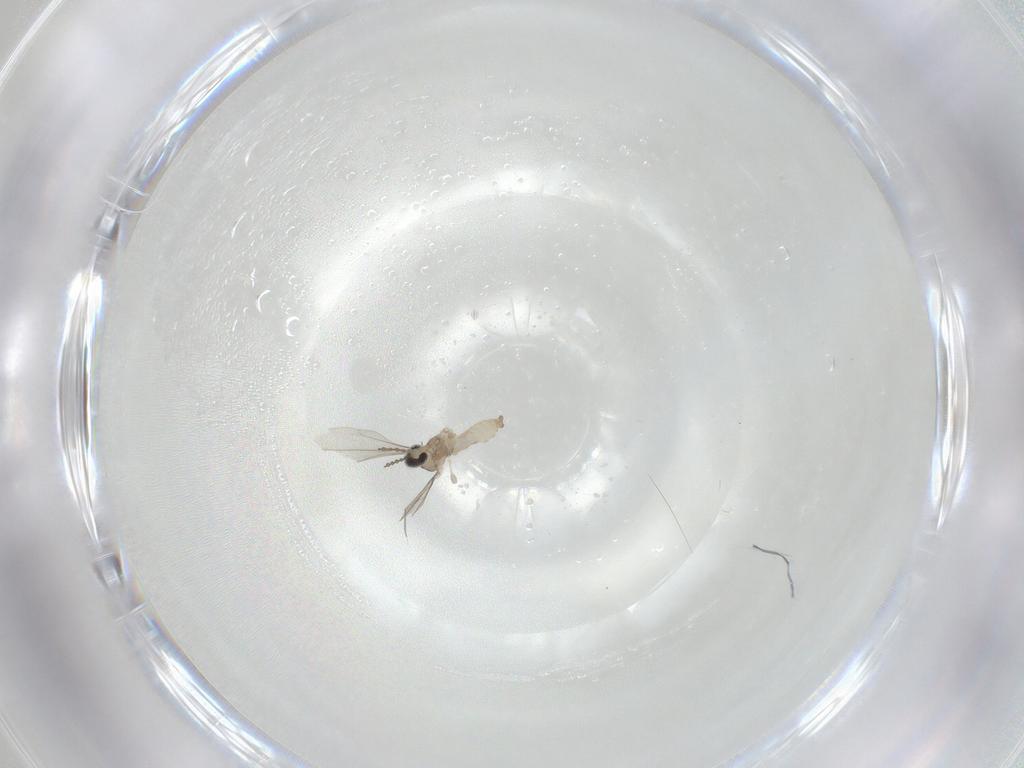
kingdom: Animalia
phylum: Arthropoda
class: Insecta
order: Diptera
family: Cecidomyiidae
